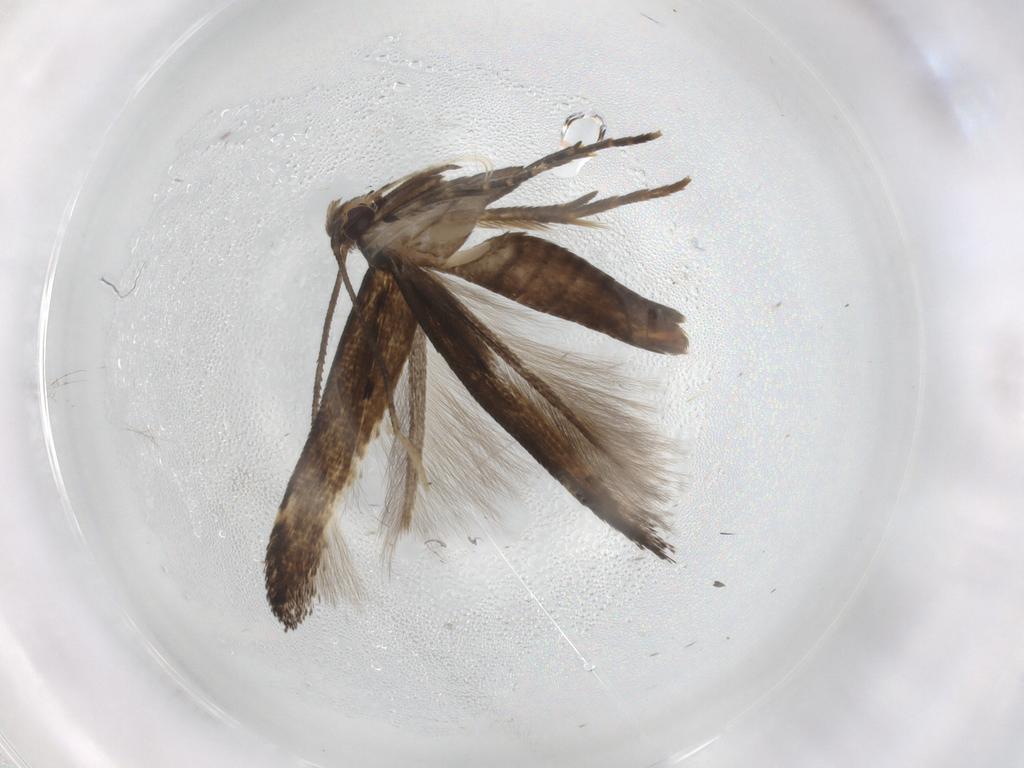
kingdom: Animalia
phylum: Arthropoda
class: Insecta
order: Lepidoptera
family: Cosmopterigidae
